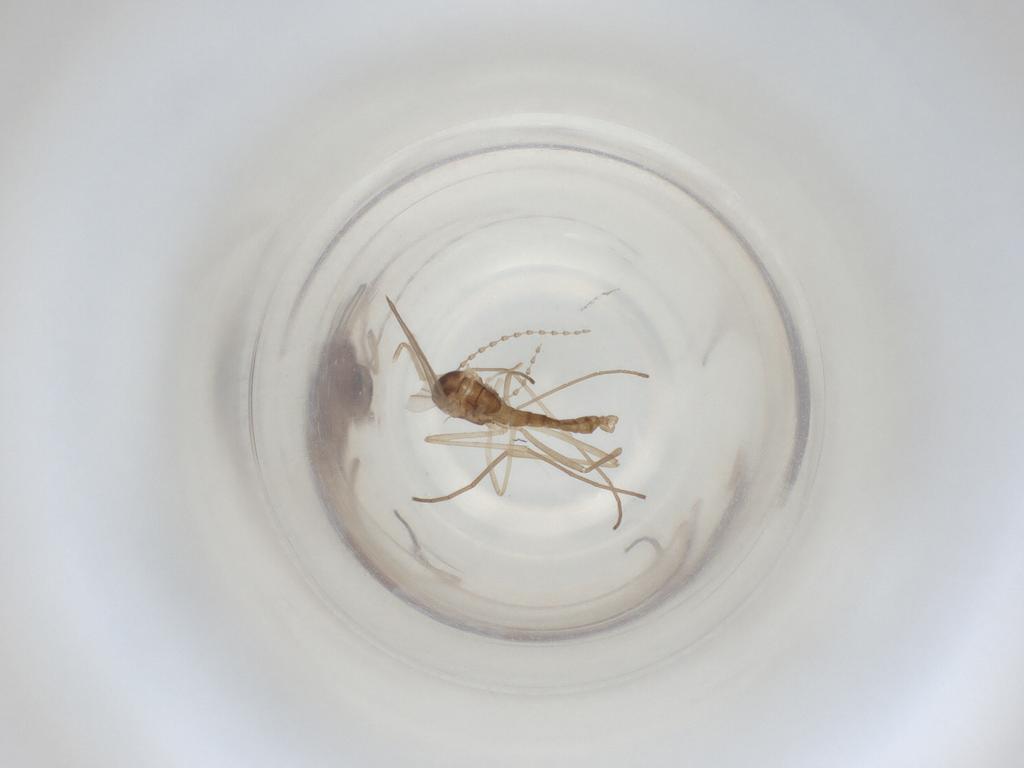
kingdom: Animalia
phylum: Arthropoda
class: Insecta
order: Diptera
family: Cecidomyiidae
